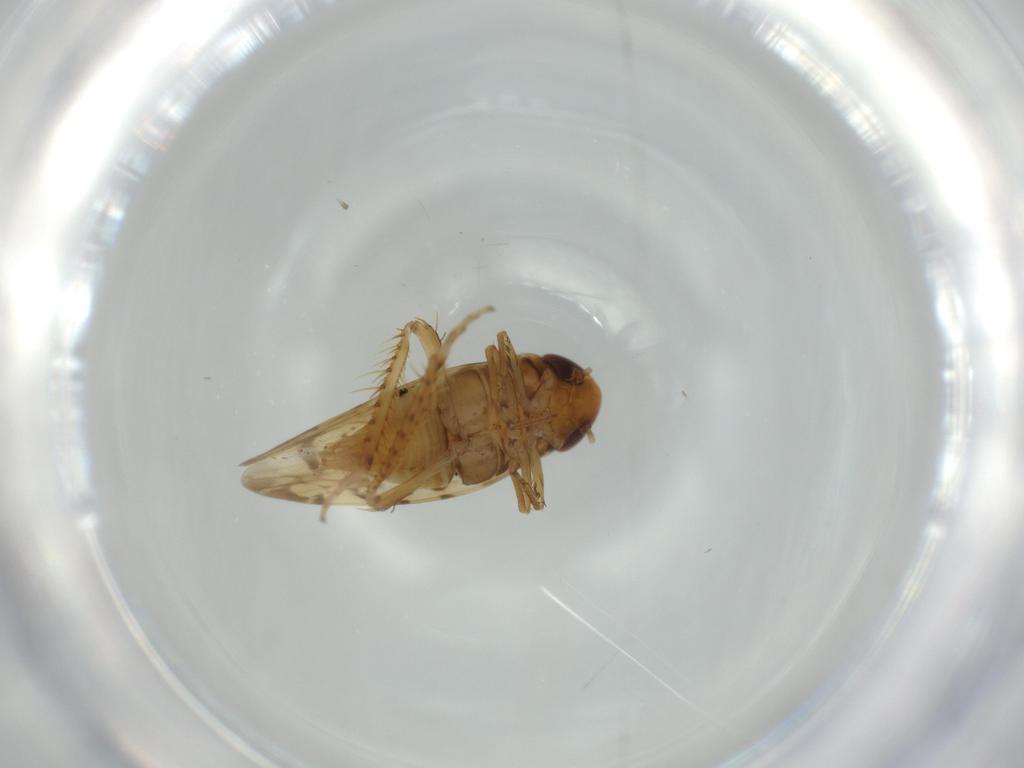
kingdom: Animalia
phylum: Arthropoda
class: Insecta
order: Hemiptera
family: Cicadellidae
